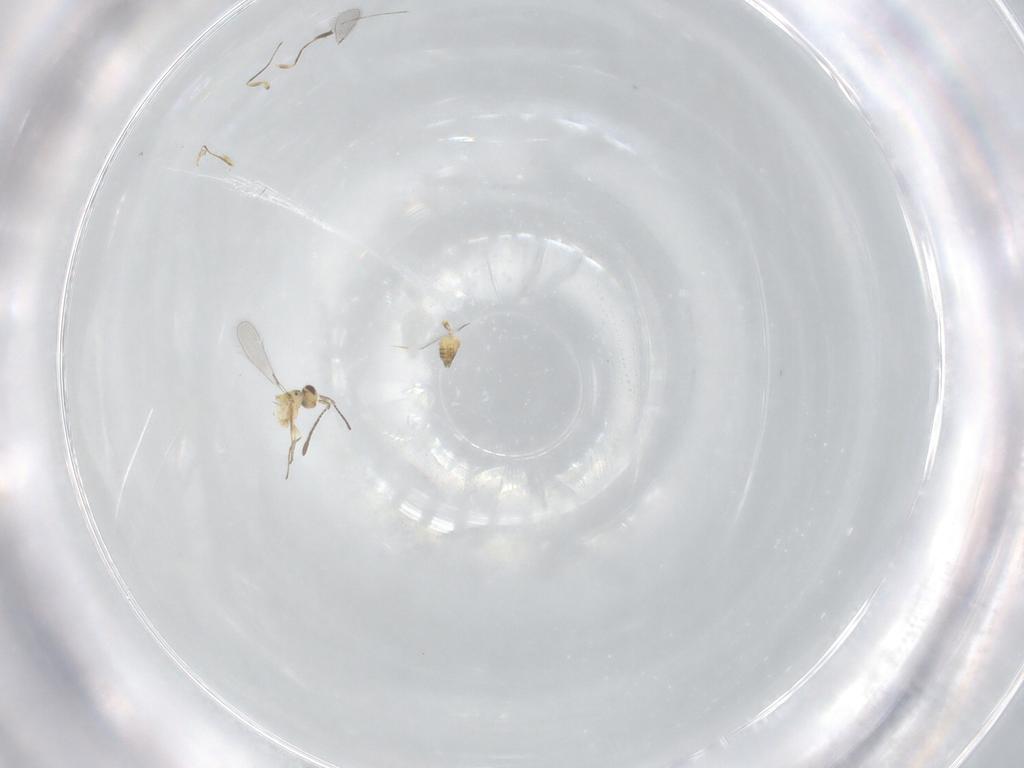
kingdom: Animalia
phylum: Arthropoda
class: Insecta
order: Hymenoptera
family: Mymaridae
